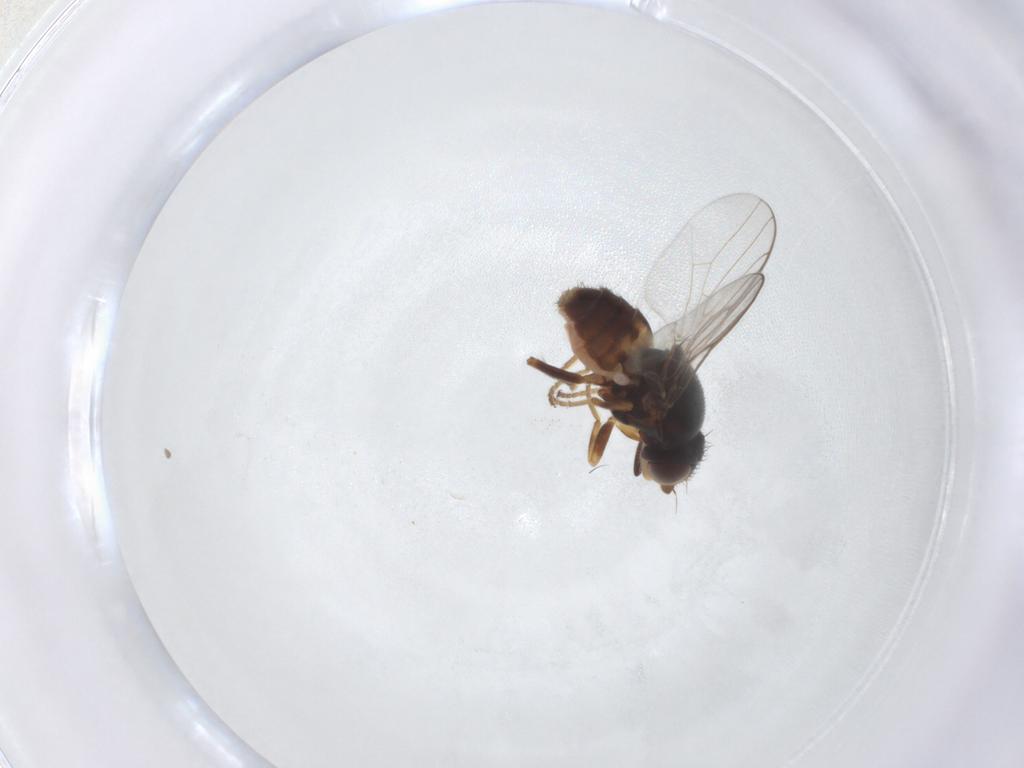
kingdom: Animalia
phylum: Arthropoda
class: Insecta
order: Diptera
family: Chloropidae
